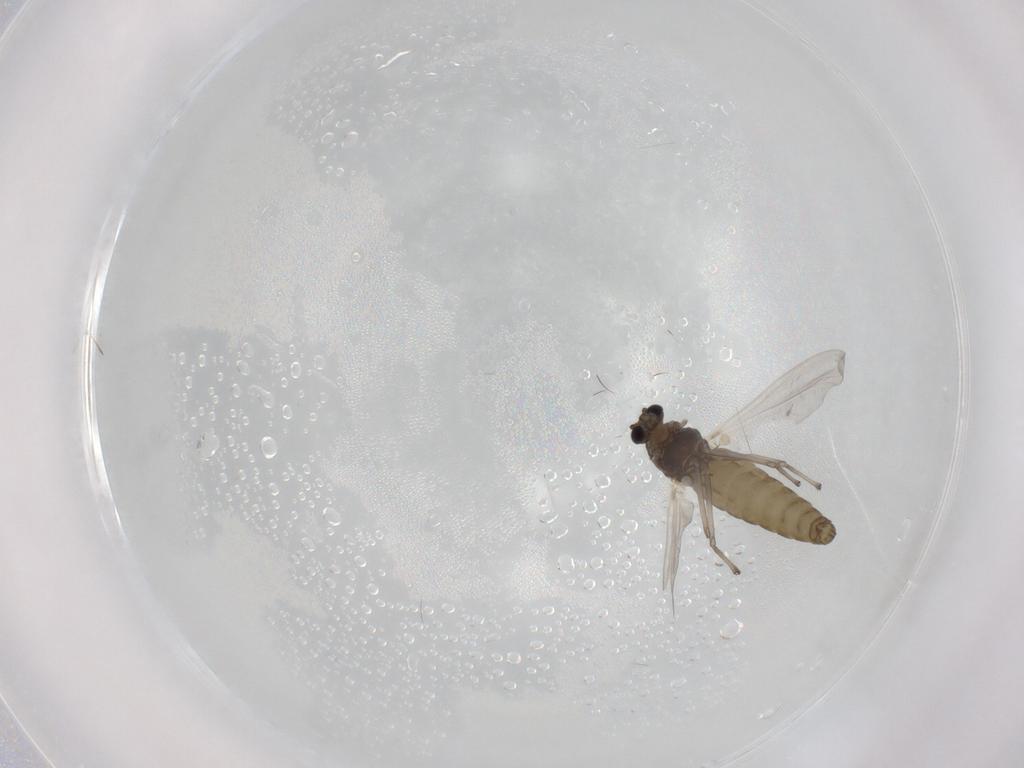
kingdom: Animalia
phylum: Arthropoda
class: Insecta
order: Diptera
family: Chironomidae
